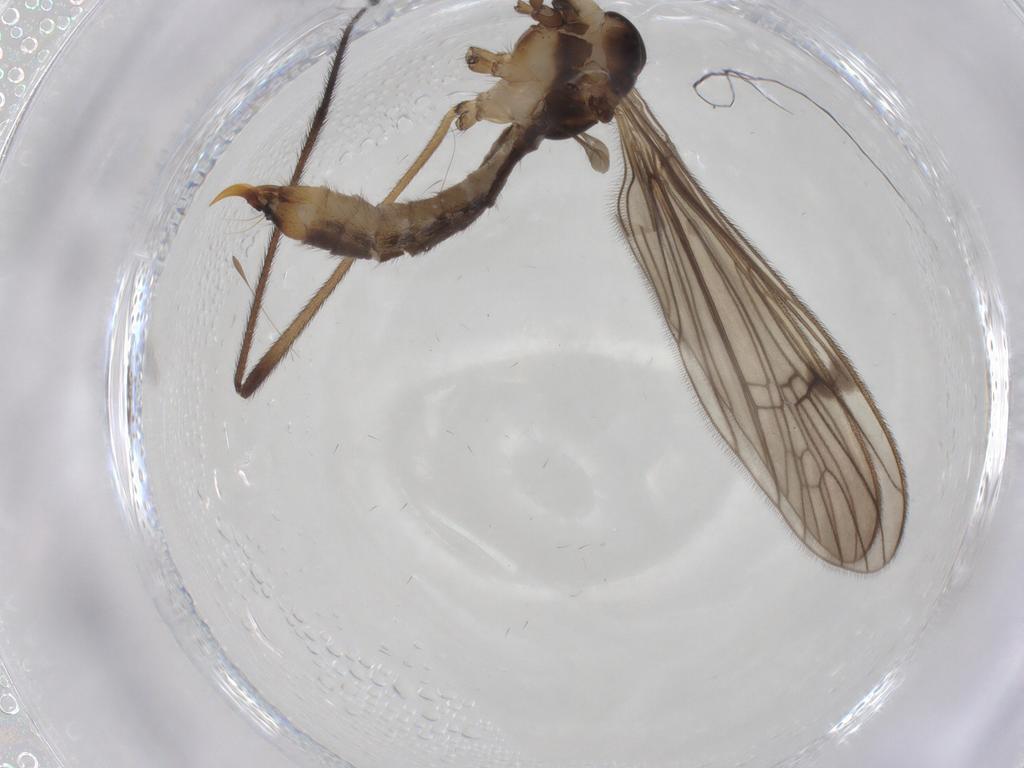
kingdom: Animalia
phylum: Arthropoda
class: Insecta
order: Diptera
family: Limoniidae
